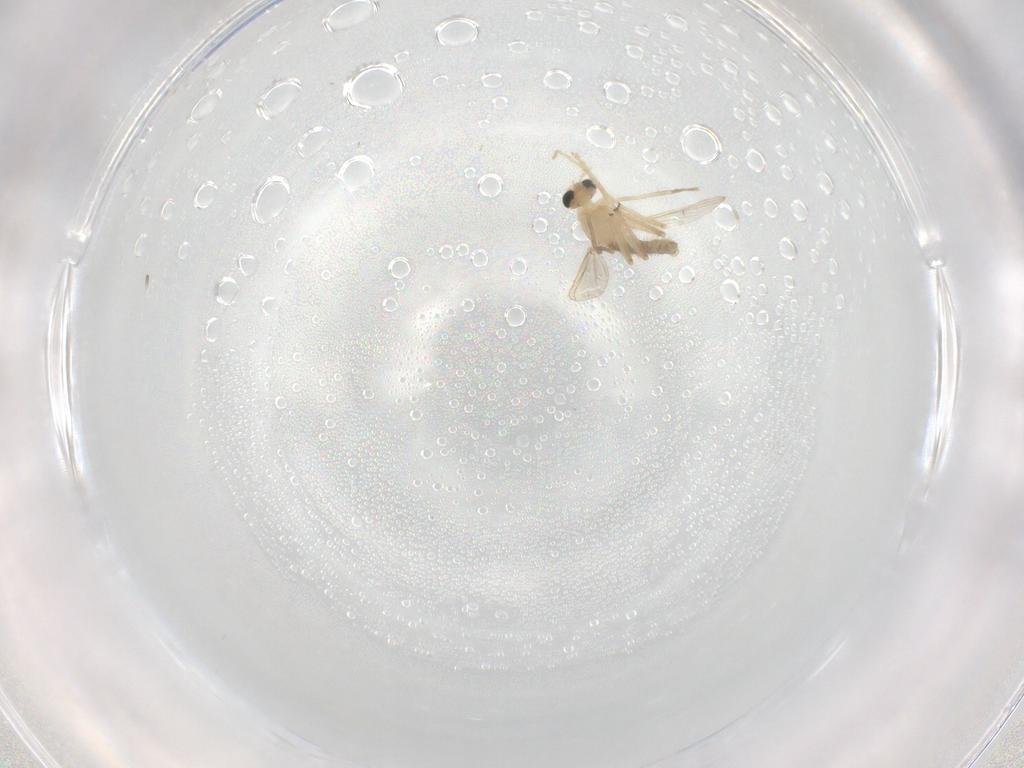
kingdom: Animalia
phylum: Arthropoda
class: Insecta
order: Diptera
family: Cecidomyiidae
